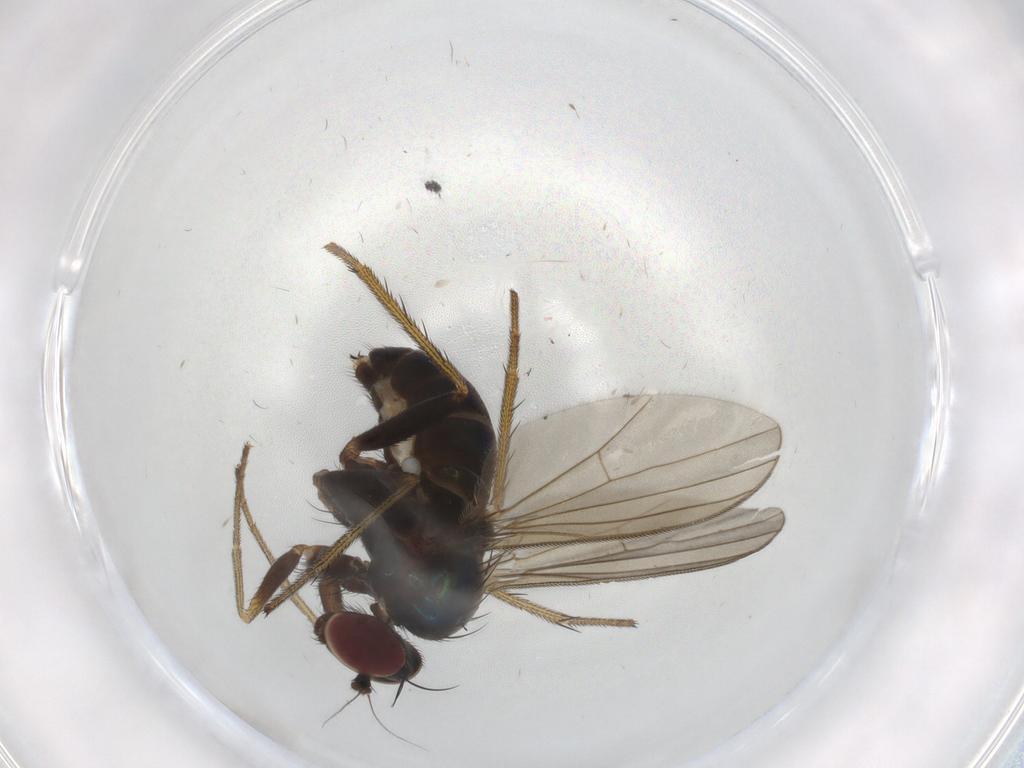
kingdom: Animalia
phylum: Arthropoda
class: Insecta
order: Diptera
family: Dolichopodidae
